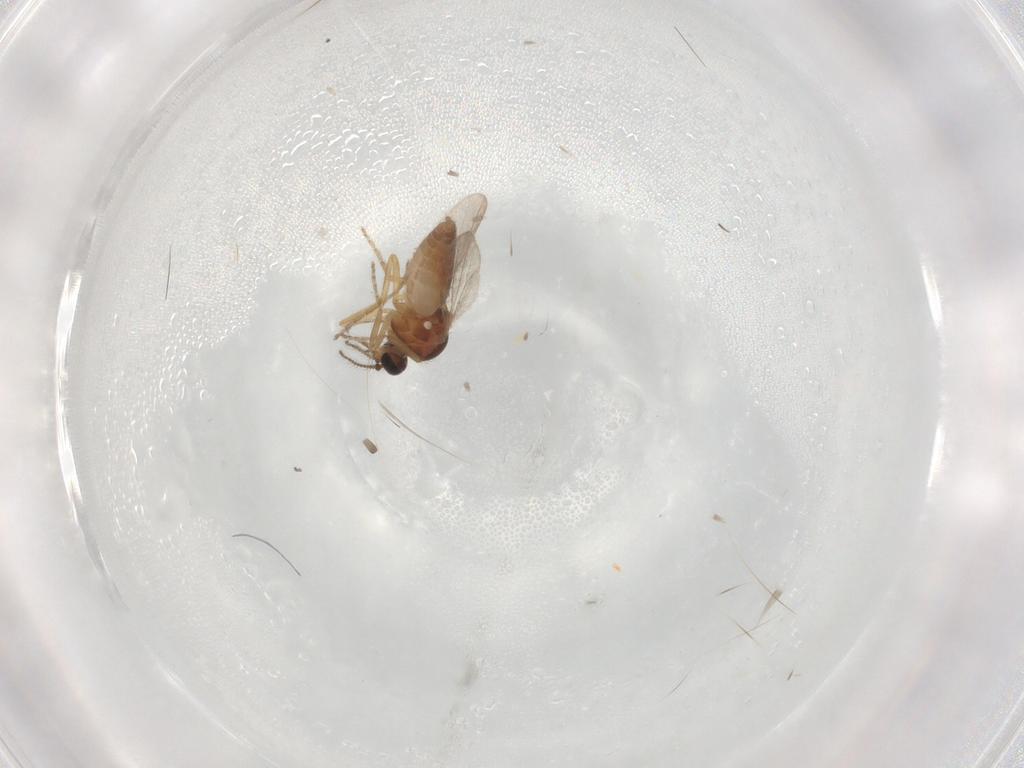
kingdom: Animalia
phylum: Arthropoda
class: Insecta
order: Diptera
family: Ceratopogonidae
